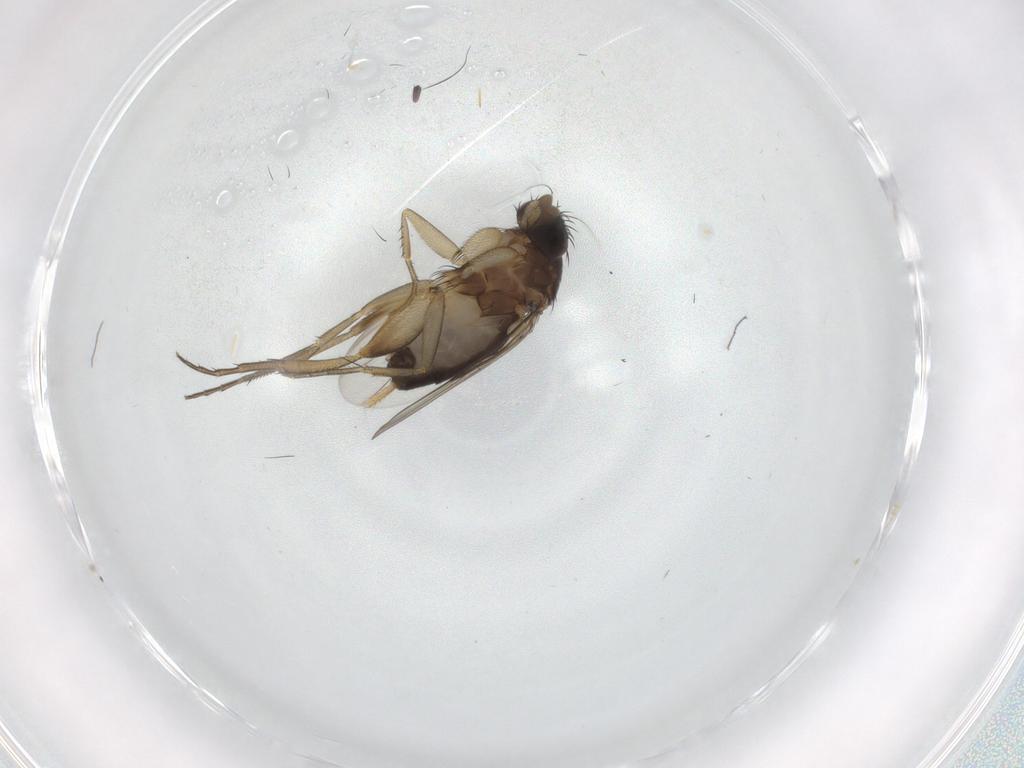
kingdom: Animalia
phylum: Arthropoda
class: Insecta
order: Diptera
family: Phoridae
